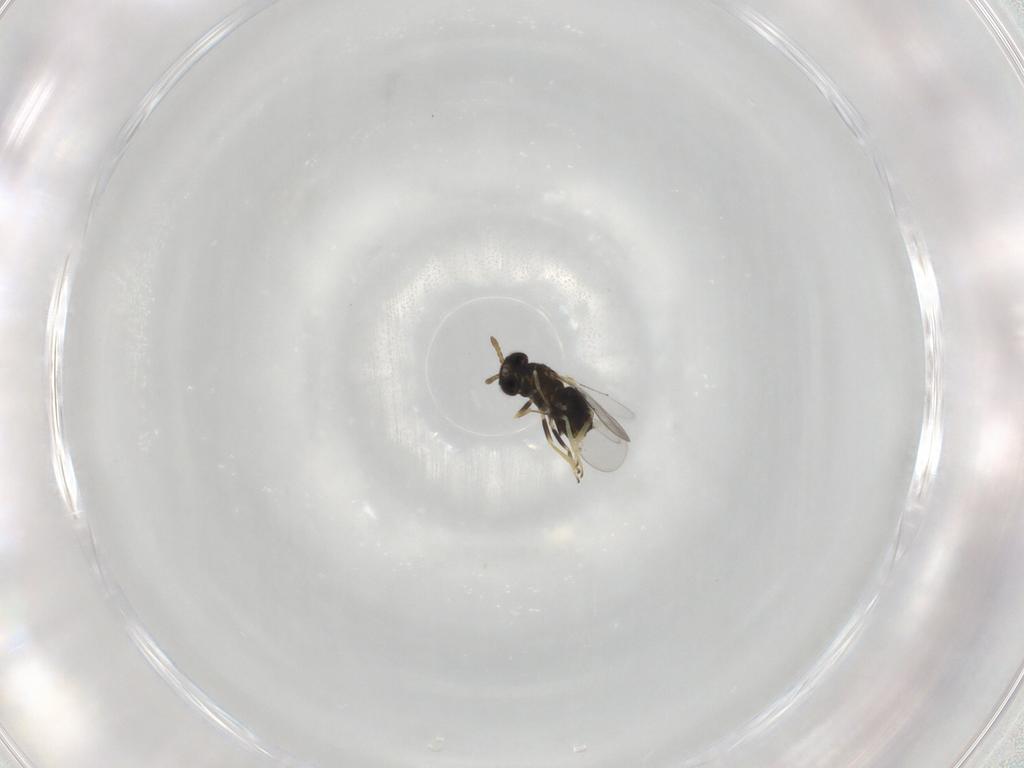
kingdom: Animalia
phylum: Arthropoda
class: Insecta
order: Hymenoptera
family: Aphelinidae
